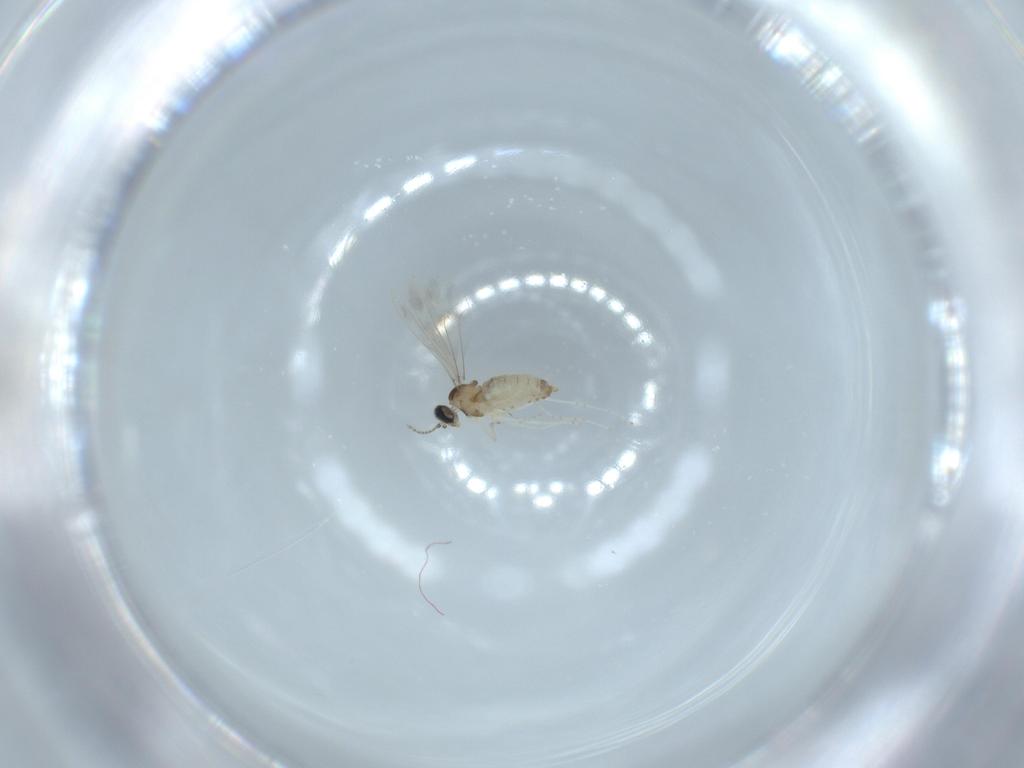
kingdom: Animalia
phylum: Arthropoda
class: Insecta
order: Diptera
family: Cecidomyiidae
